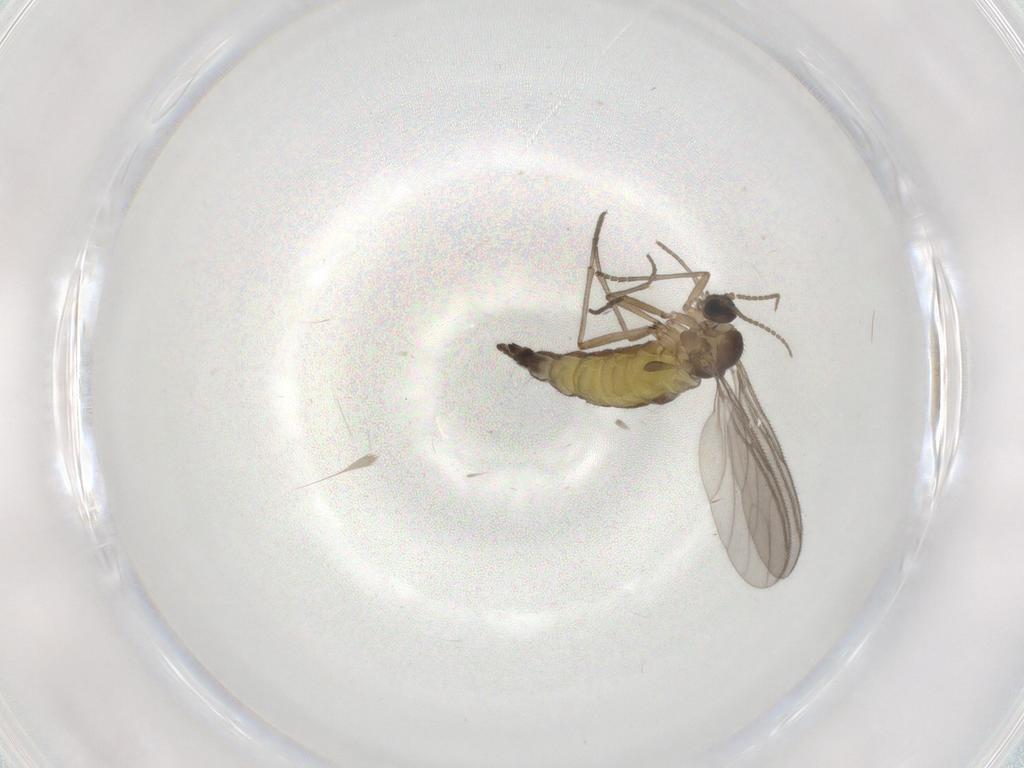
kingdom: Animalia
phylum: Arthropoda
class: Insecta
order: Diptera
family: Sciaridae
